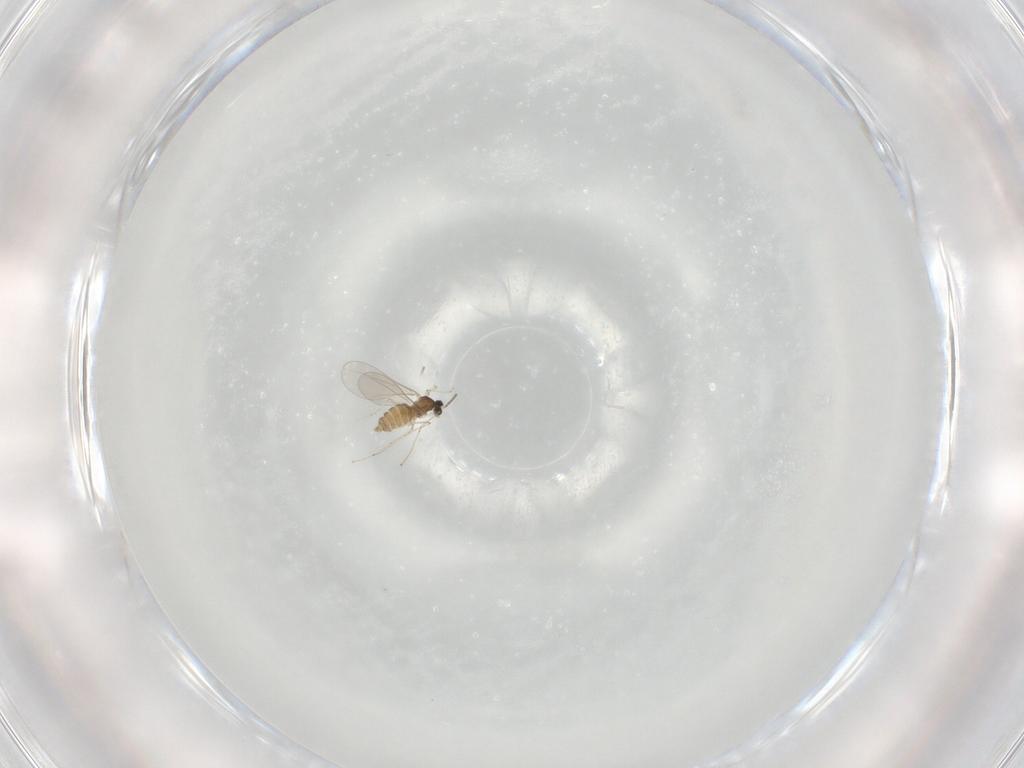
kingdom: Animalia
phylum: Arthropoda
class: Insecta
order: Diptera
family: Cecidomyiidae
